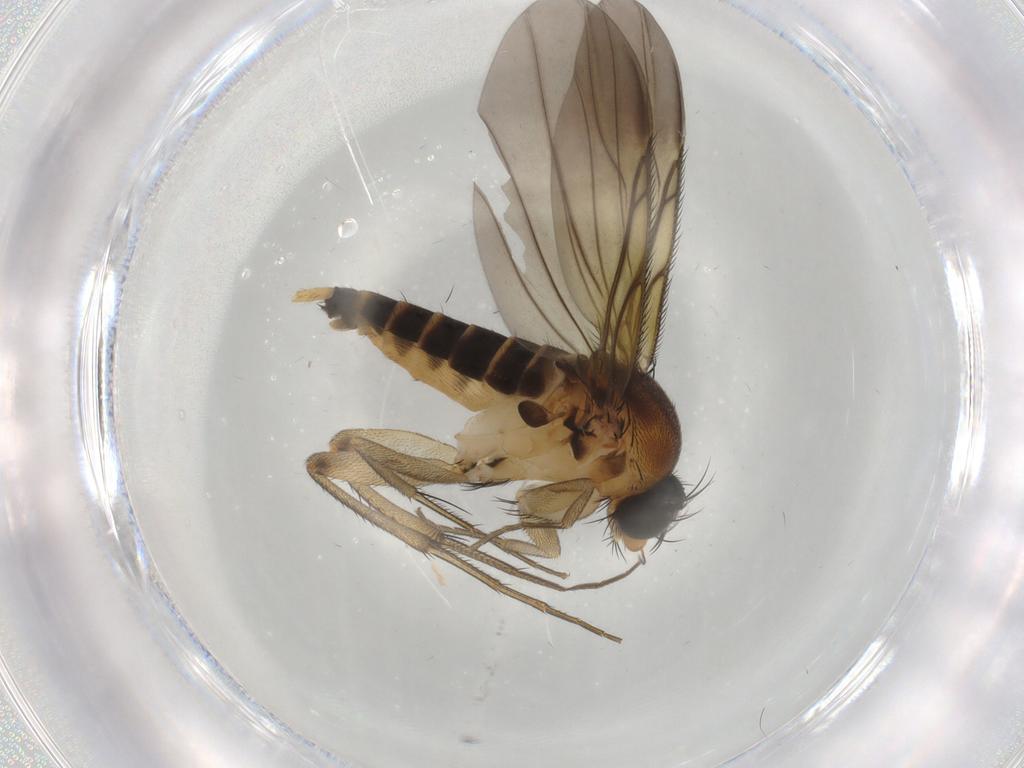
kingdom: Animalia
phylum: Arthropoda
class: Insecta
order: Diptera
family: Phoridae
